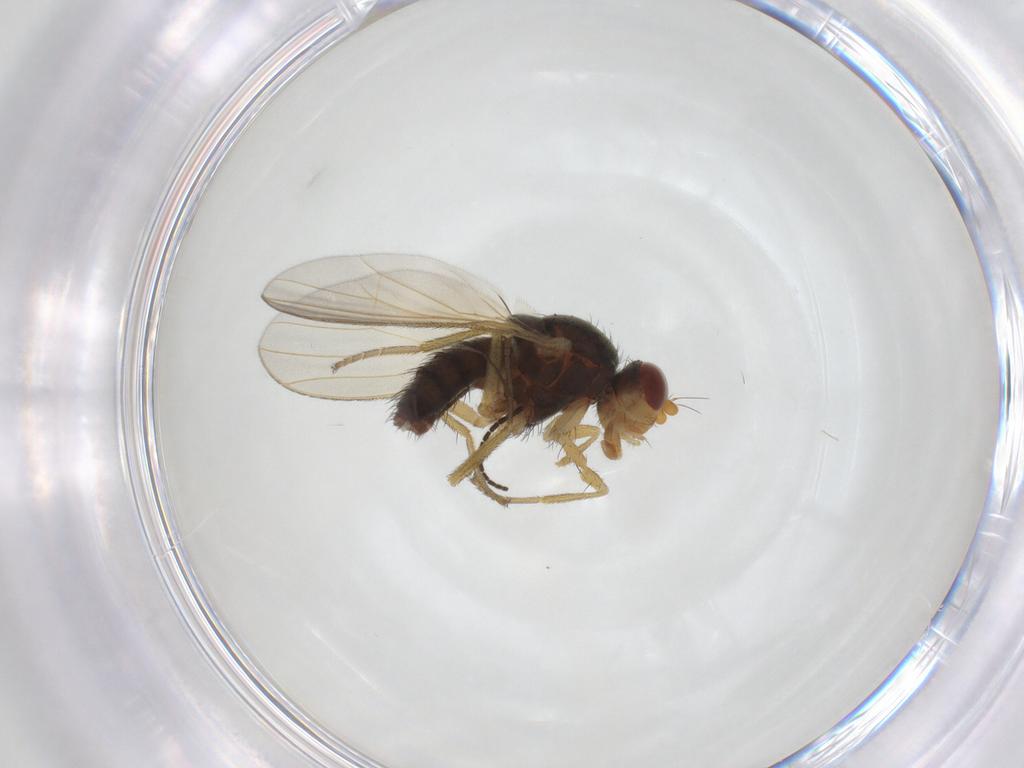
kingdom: Animalia
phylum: Arthropoda
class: Insecta
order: Diptera
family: Heleomyzidae
